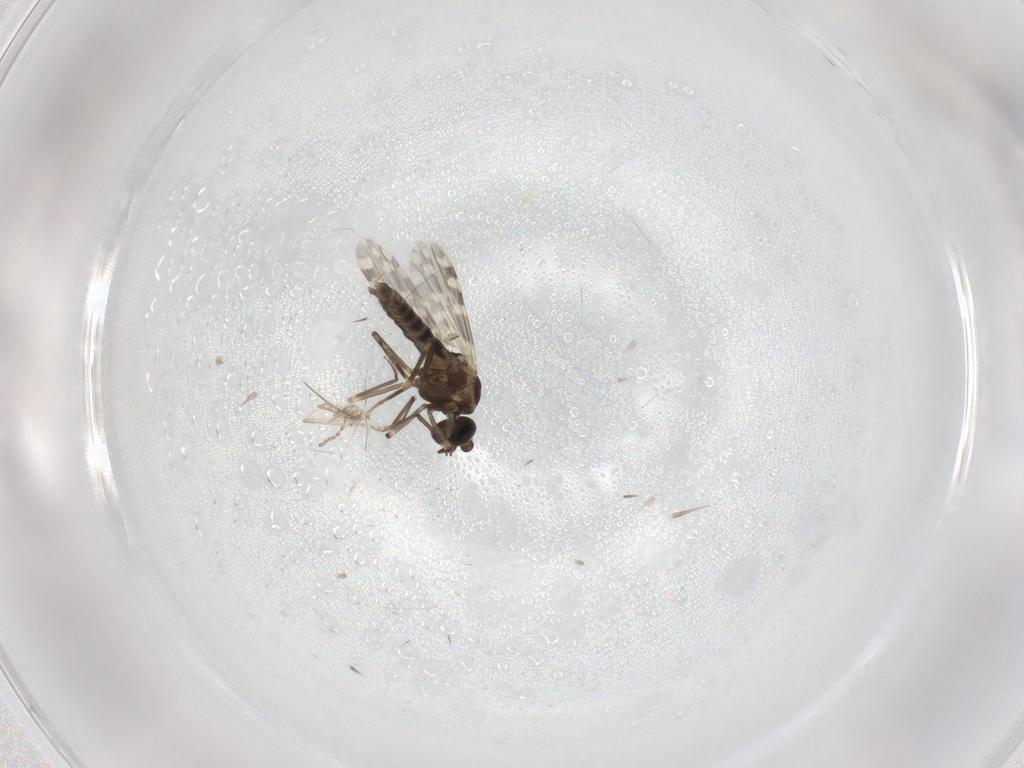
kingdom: Animalia
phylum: Arthropoda
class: Insecta
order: Diptera
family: Ceratopogonidae
